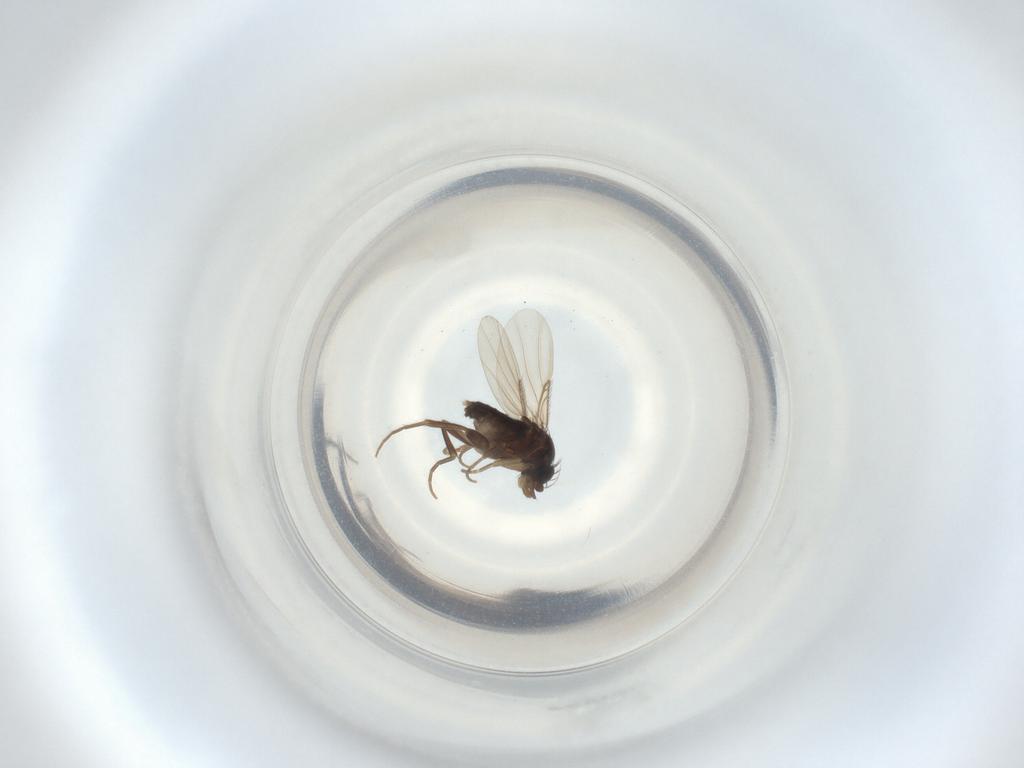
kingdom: Animalia
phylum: Arthropoda
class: Insecta
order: Diptera
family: Phoridae
